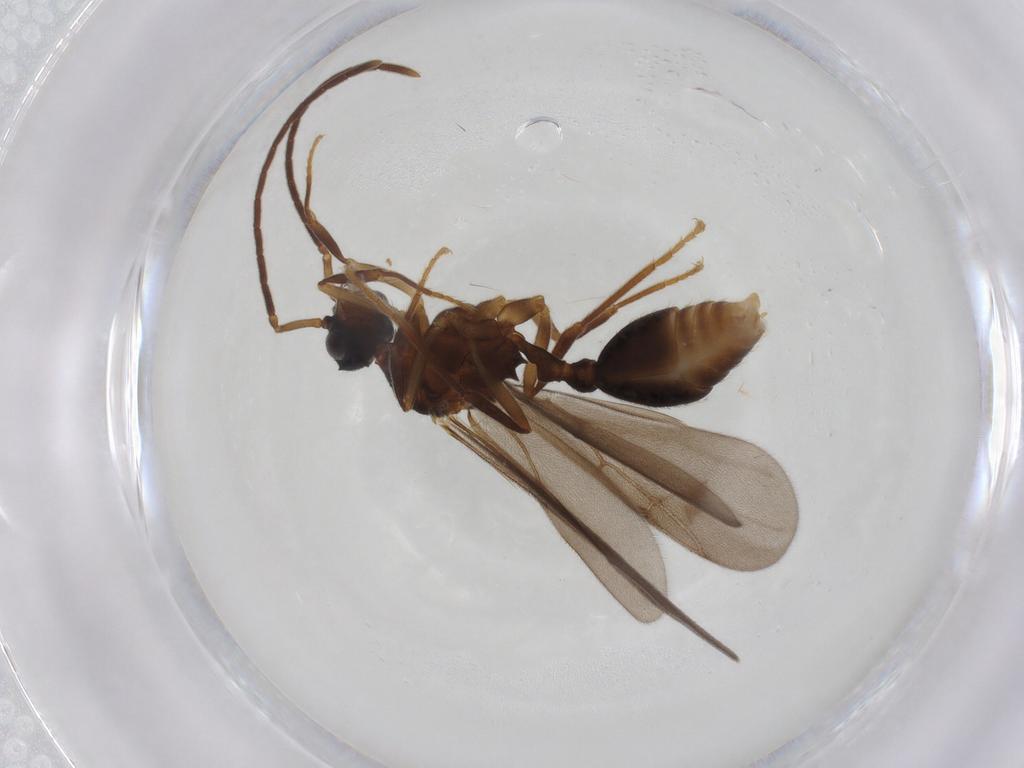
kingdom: Animalia
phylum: Arthropoda
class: Insecta
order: Hymenoptera
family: Formicidae
